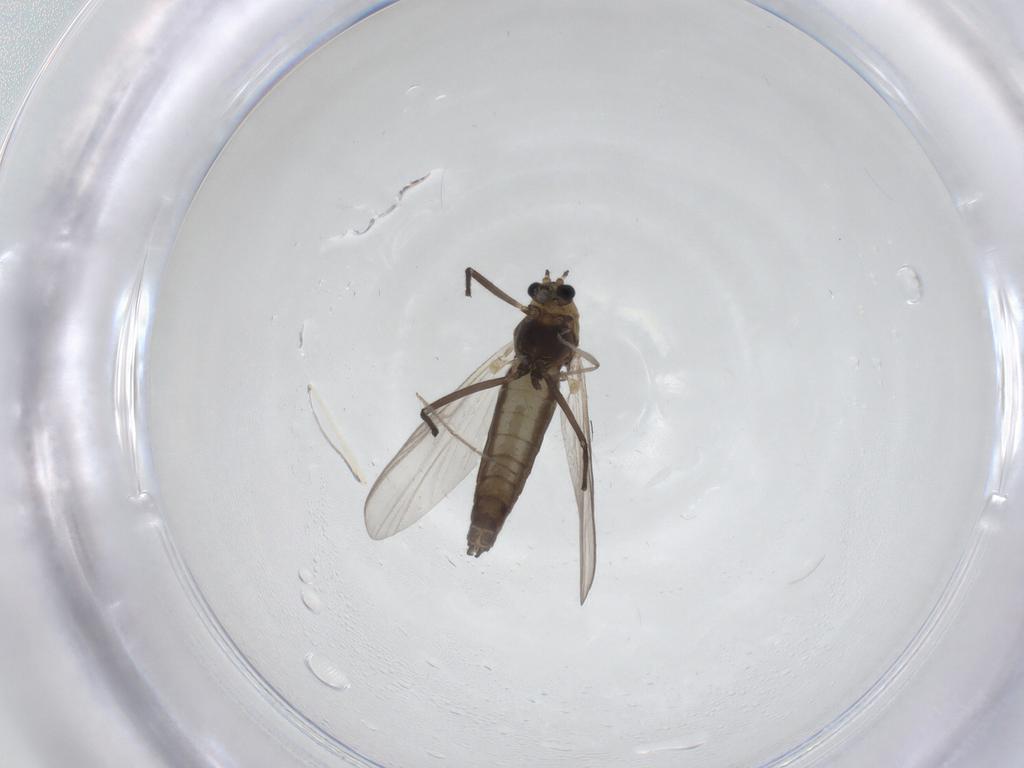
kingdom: Animalia
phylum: Arthropoda
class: Insecta
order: Diptera
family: Chironomidae
